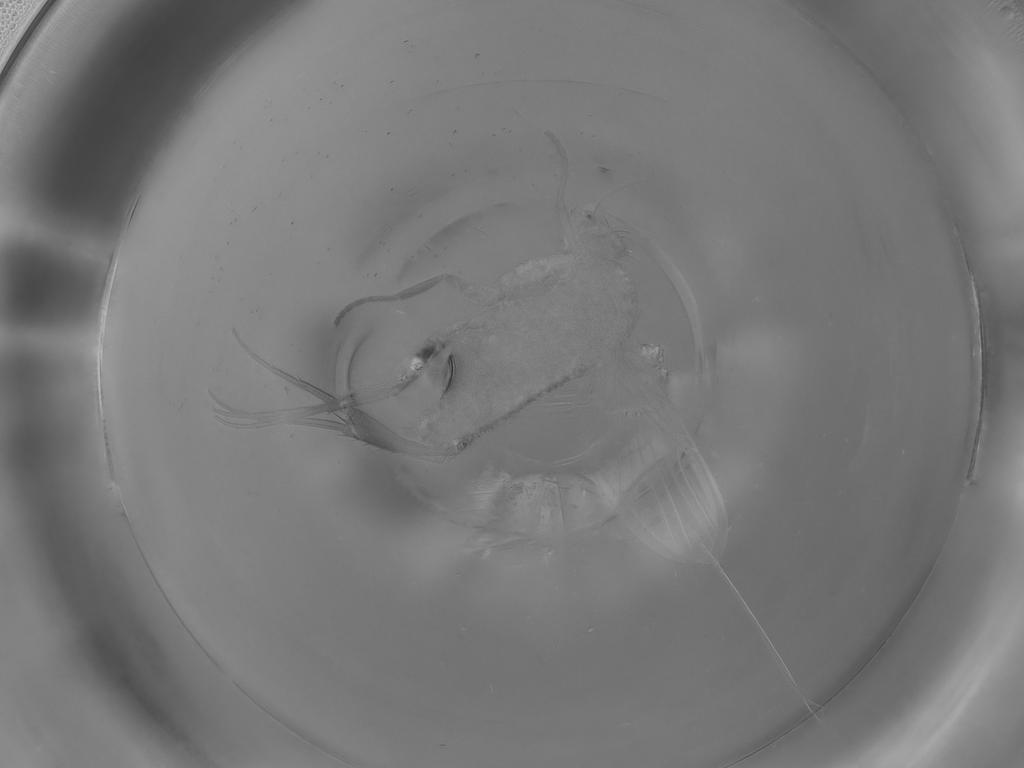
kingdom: Animalia
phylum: Arthropoda
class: Insecta
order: Diptera
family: Phoridae
